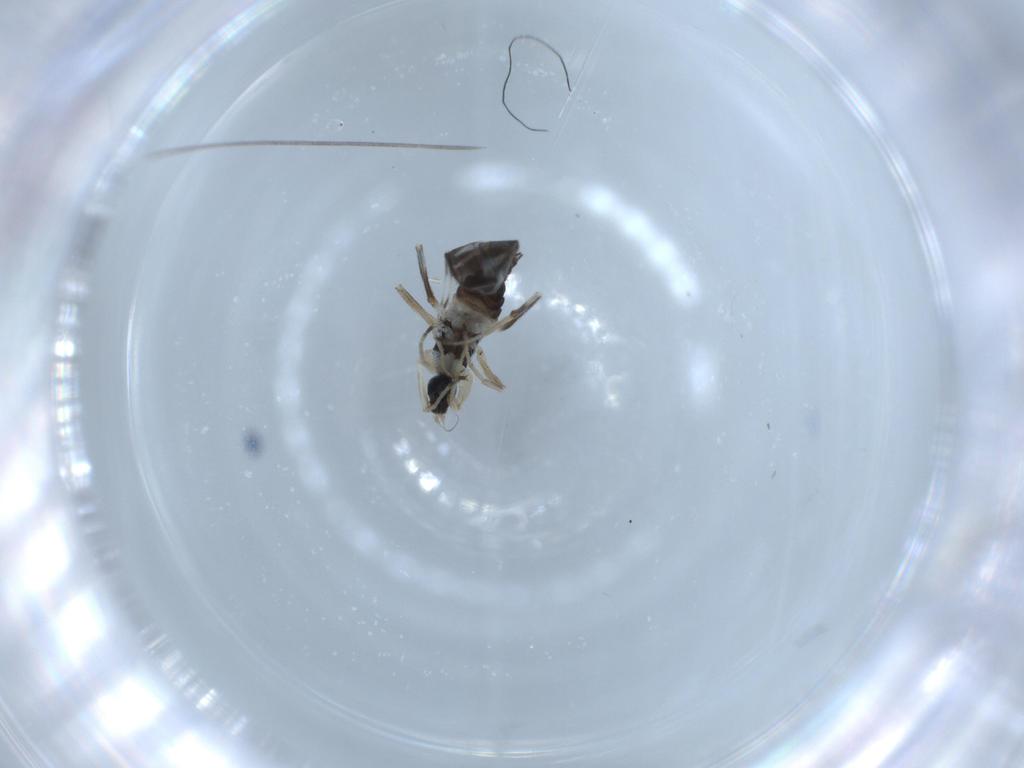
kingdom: Animalia
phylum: Arthropoda
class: Insecta
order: Diptera
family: Hybotidae
